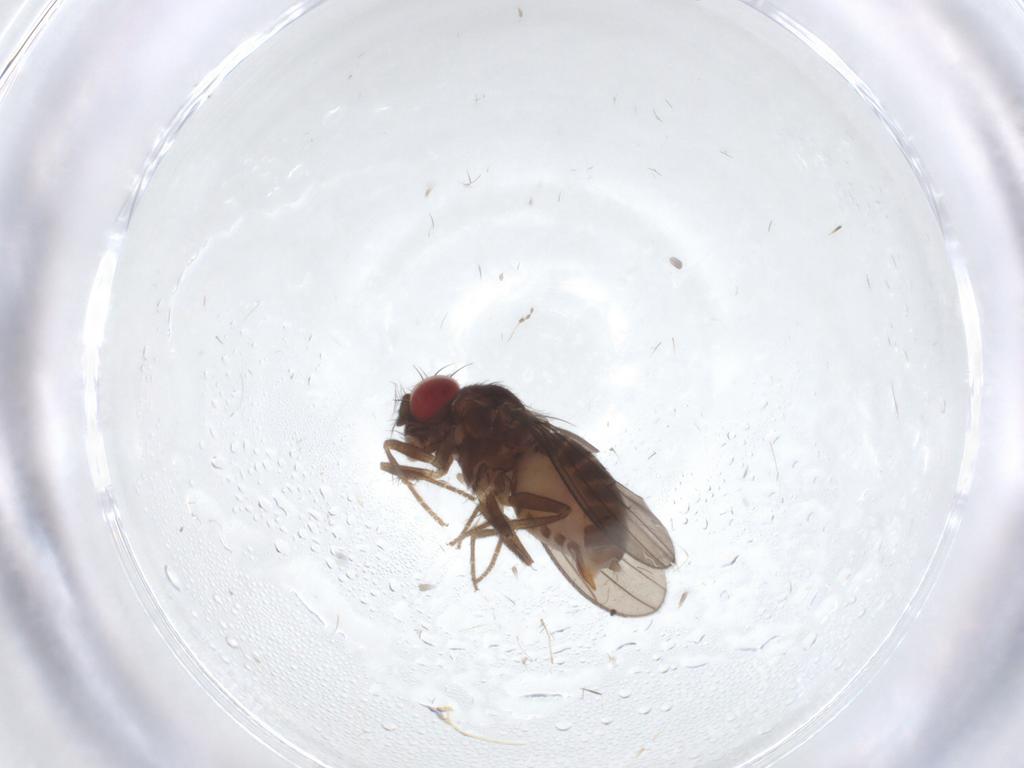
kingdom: Animalia
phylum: Arthropoda
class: Insecta
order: Diptera
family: Drosophilidae
